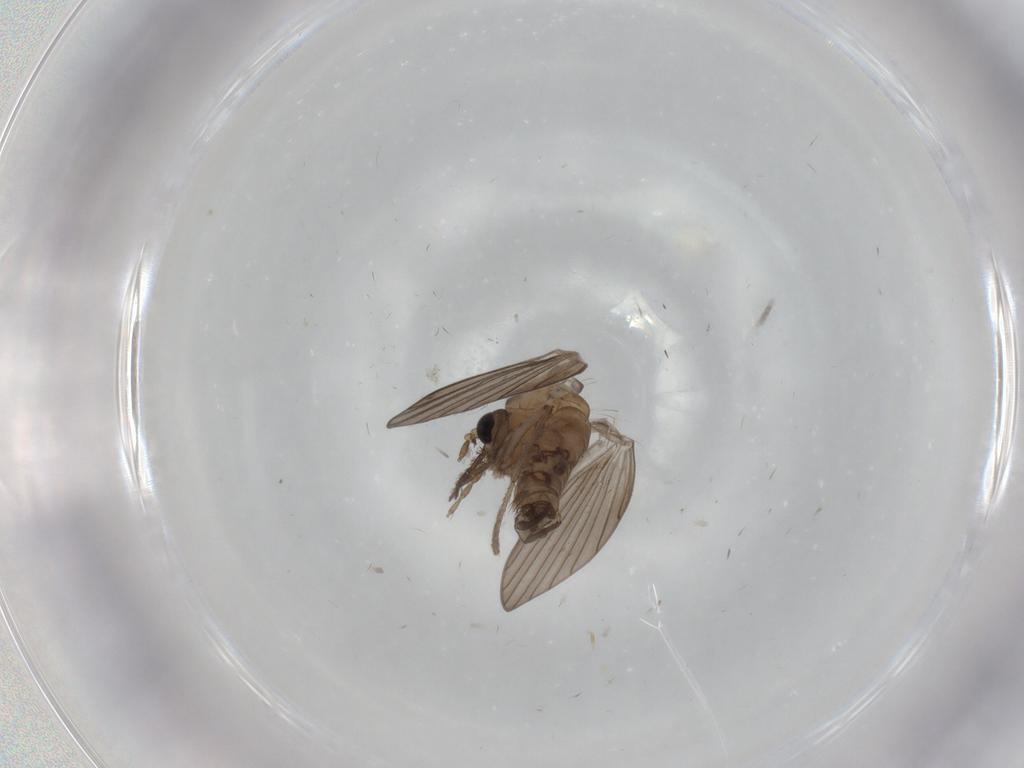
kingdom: Animalia
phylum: Arthropoda
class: Insecta
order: Diptera
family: Psychodidae
